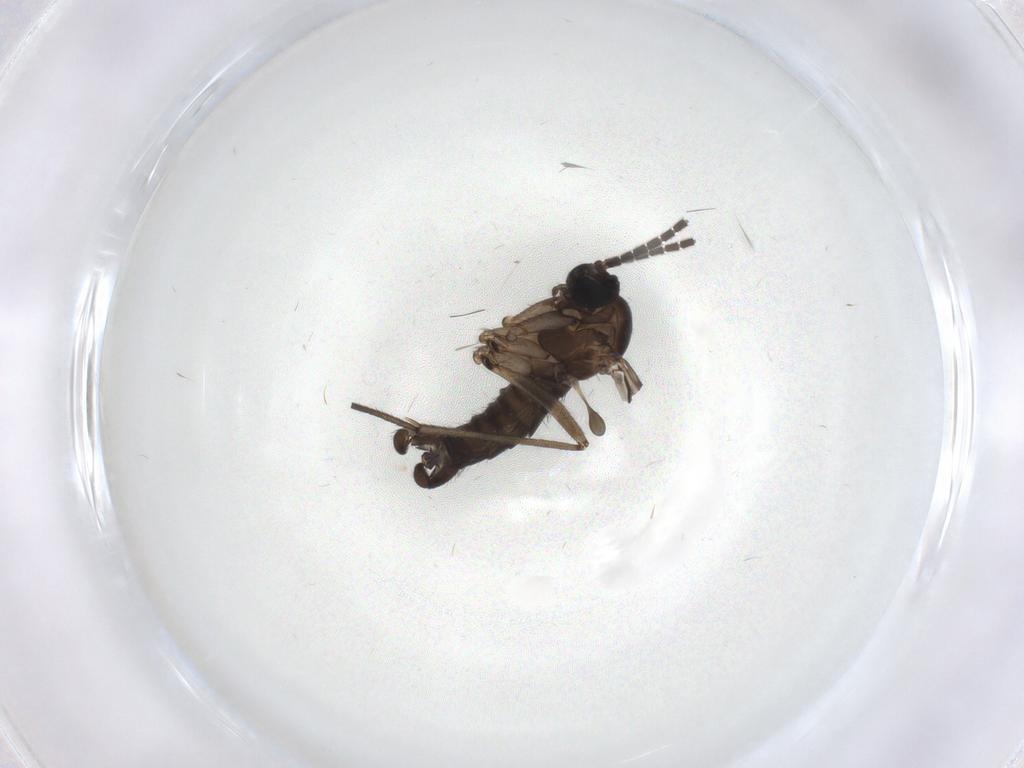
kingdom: Animalia
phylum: Arthropoda
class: Insecta
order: Diptera
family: Sciaridae
